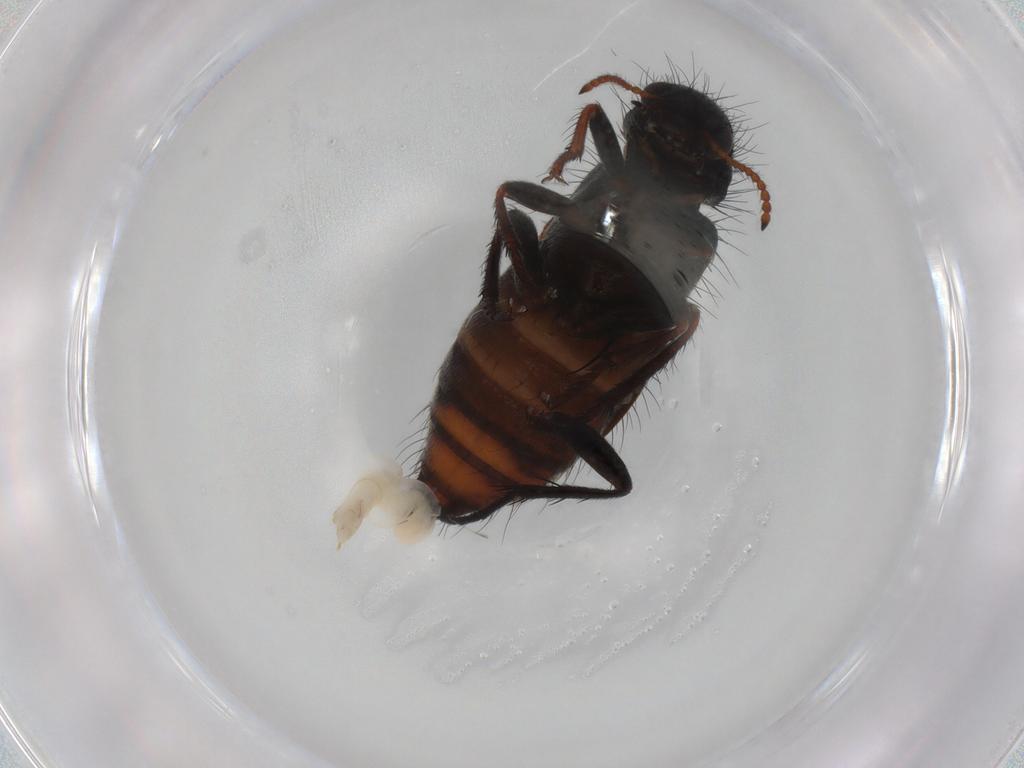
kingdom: Animalia
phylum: Arthropoda
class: Insecta
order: Coleoptera
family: Melyridae
